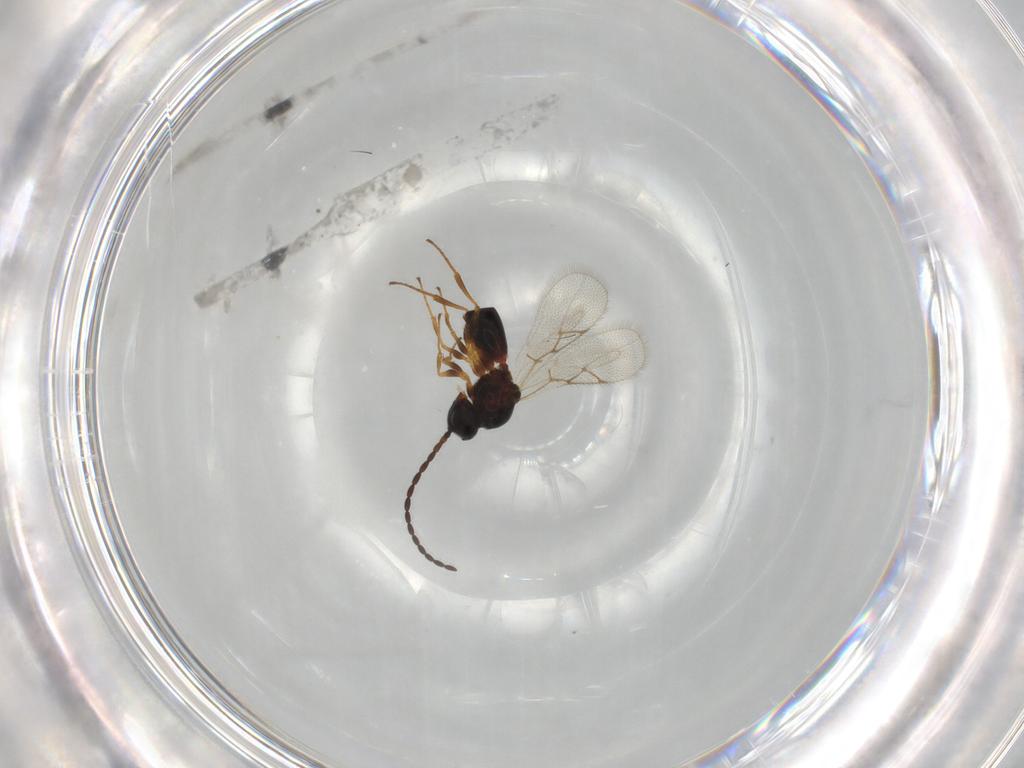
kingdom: Animalia
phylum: Arthropoda
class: Insecta
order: Hymenoptera
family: Figitidae
